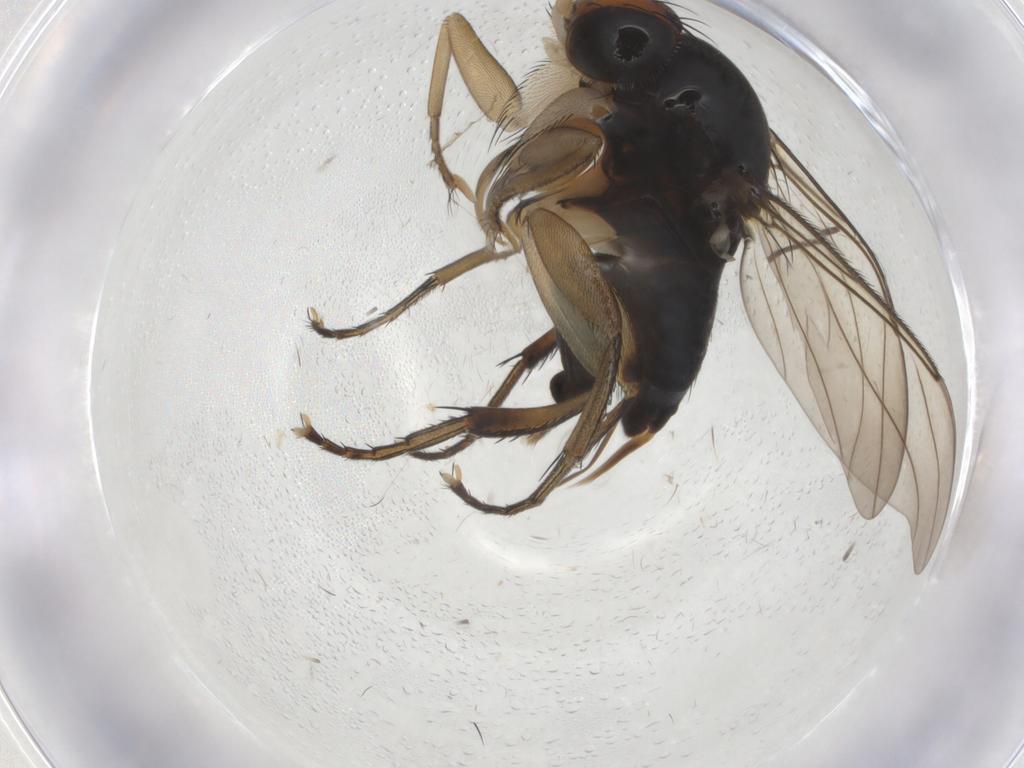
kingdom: Animalia
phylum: Arthropoda
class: Insecta
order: Diptera
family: Phoridae
